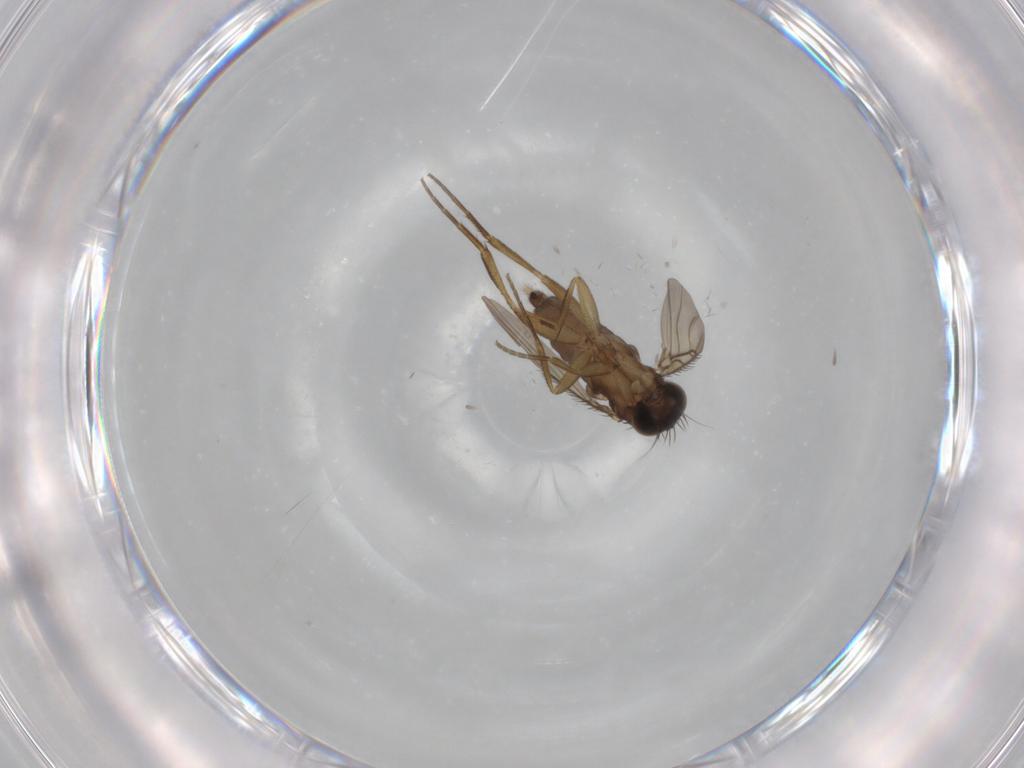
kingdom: Animalia
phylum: Arthropoda
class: Insecta
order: Diptera
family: Phoridae
